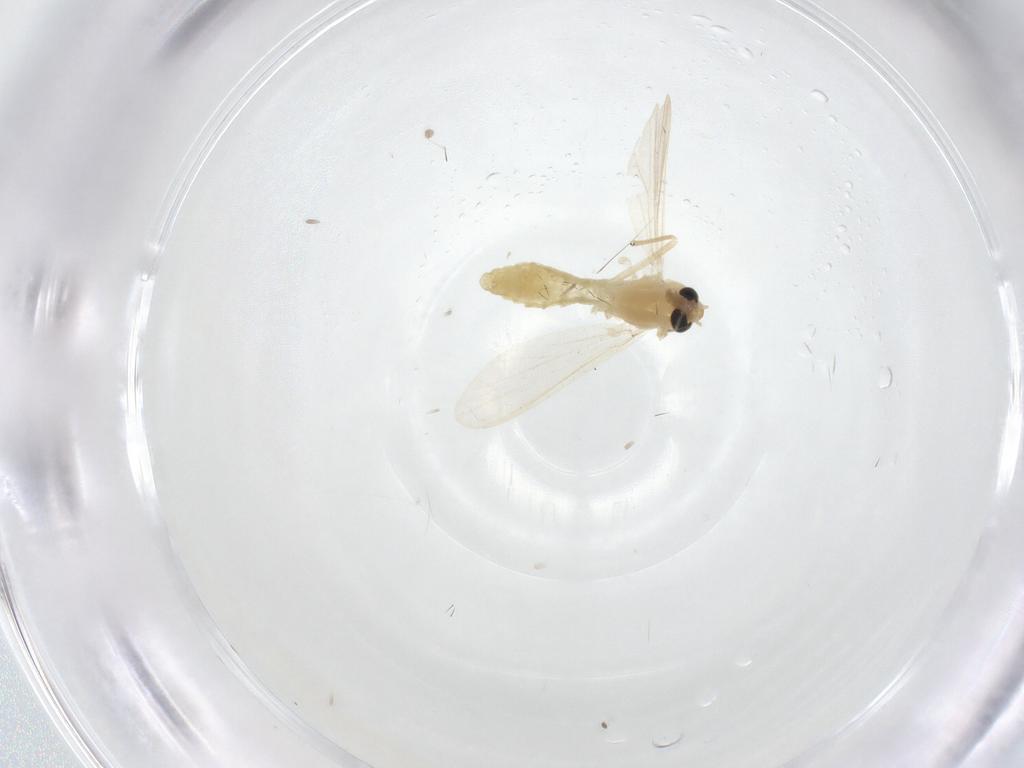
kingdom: Animalia
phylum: Arthropoda
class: Insecta
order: Diptera
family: Chironomidae
